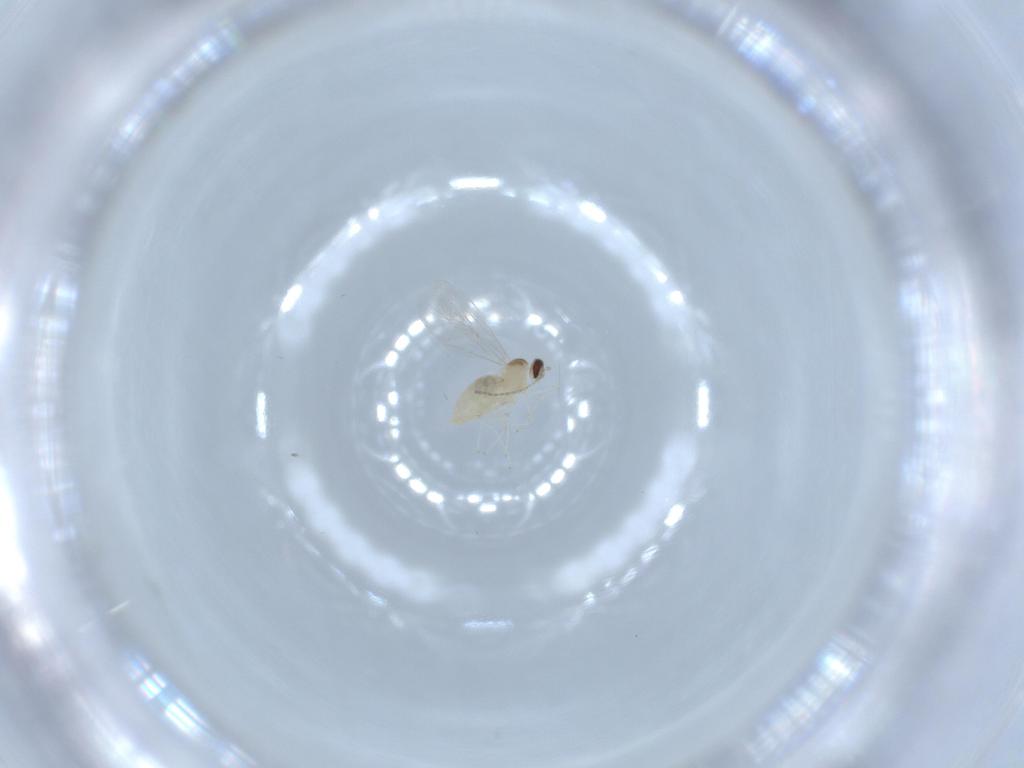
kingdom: Animalia
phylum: Arthropoda
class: Insecta
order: Diptera
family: Cecidomyiidae
